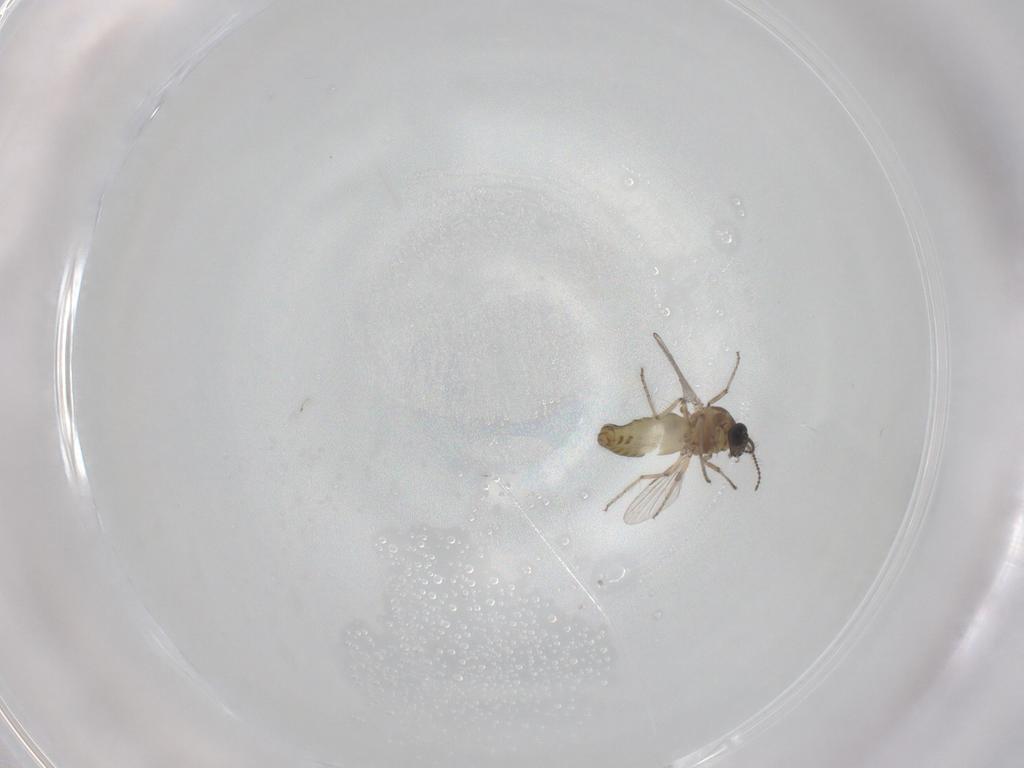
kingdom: Animalia
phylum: Arthropoda
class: Insecta
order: Diptera
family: Ceratopogonidae
